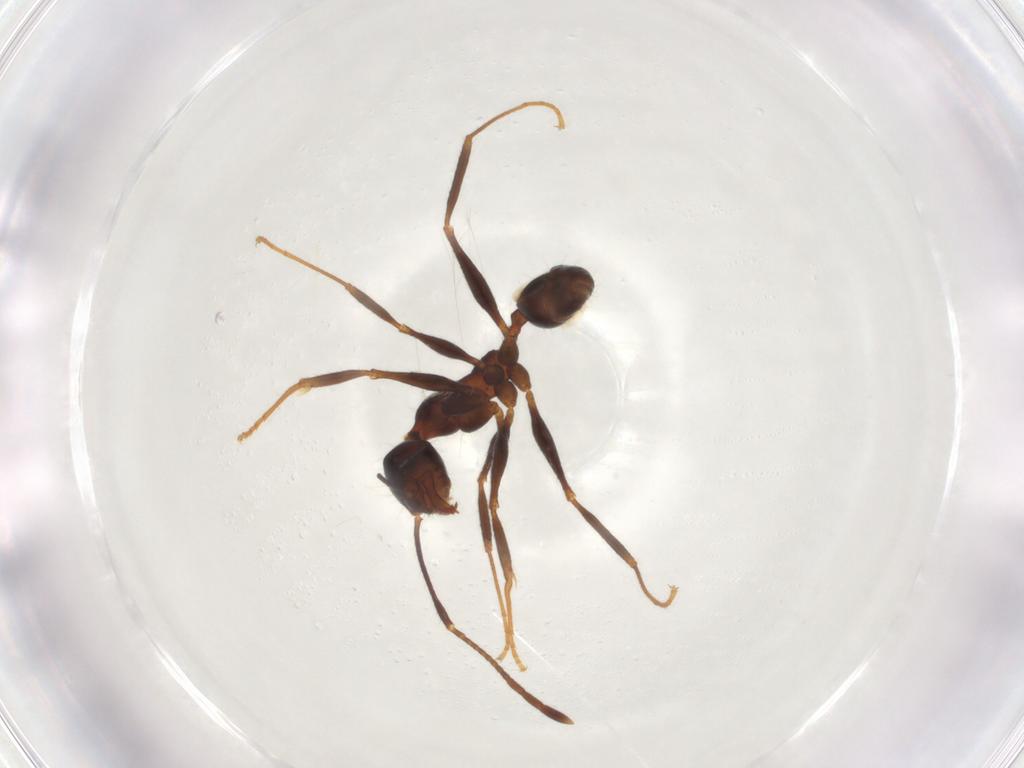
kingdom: Animalia
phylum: Arthropoda
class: Insecta
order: Hymenoptera
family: Formicidae
